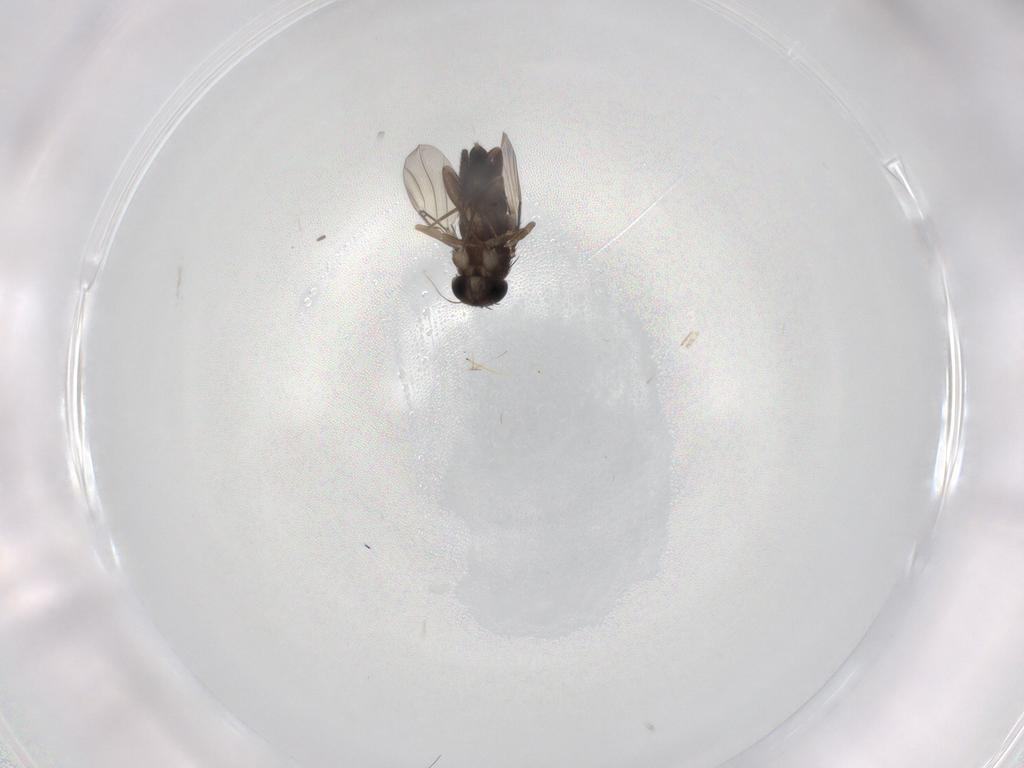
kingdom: Animalia
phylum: Arthropoda
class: Insecta
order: Diptera
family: Phoridae
